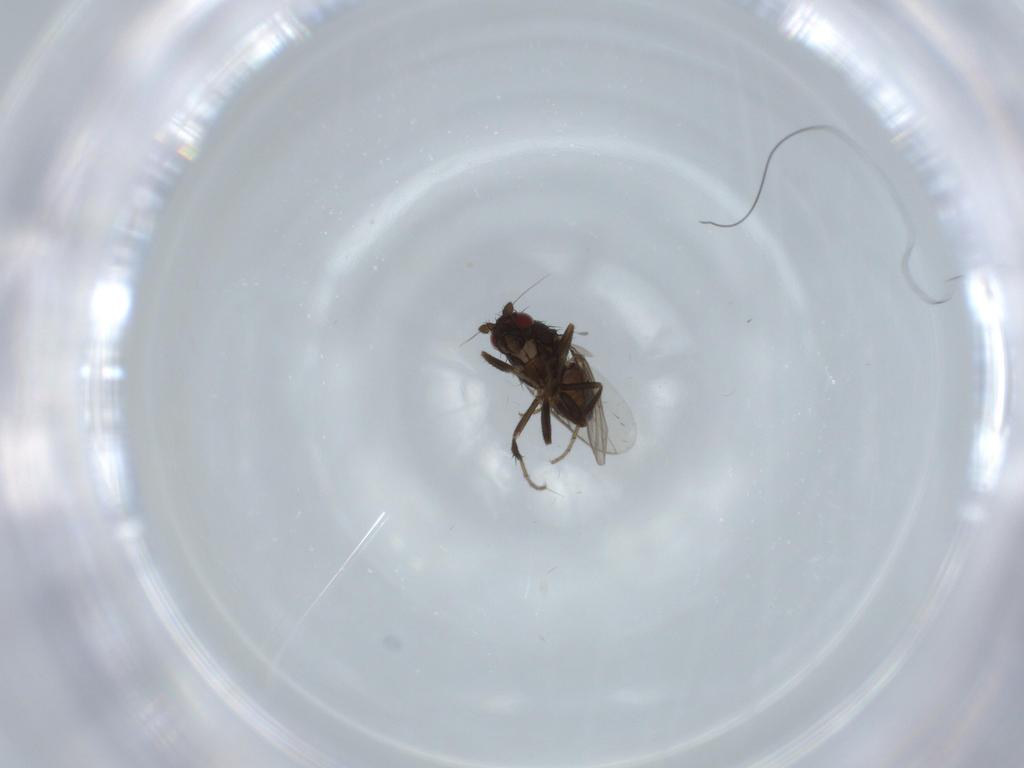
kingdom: Animalia
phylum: Arthropoda
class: Insecta
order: Diptera
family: Sphaeroceridae
